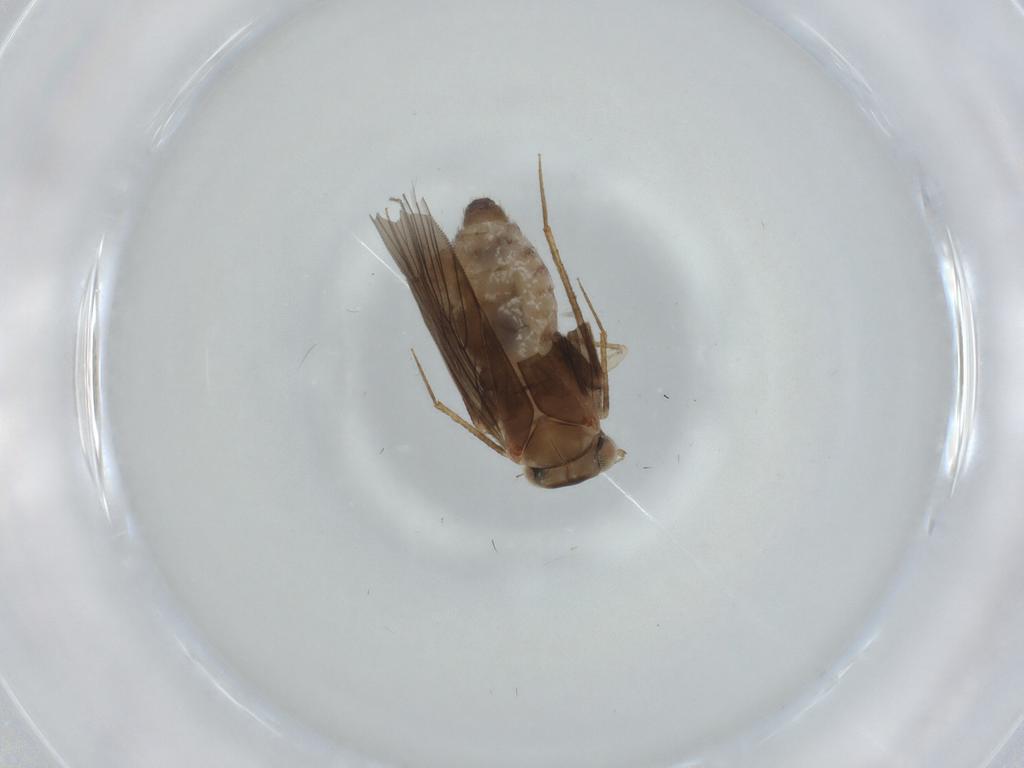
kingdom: Animalia
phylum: Arthropoda
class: Insecta
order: Psocodea
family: Lepidopsocidae
